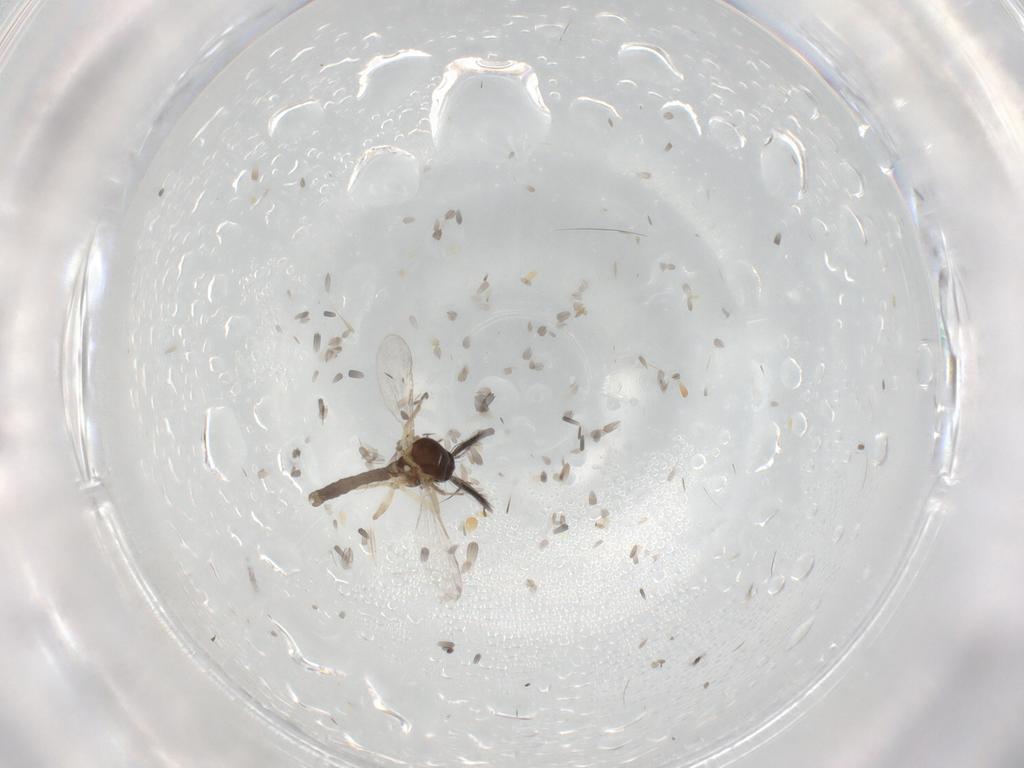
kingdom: Animalia
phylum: Arthropoda
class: Insecta
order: Diptera
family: Ceratopogonidae
